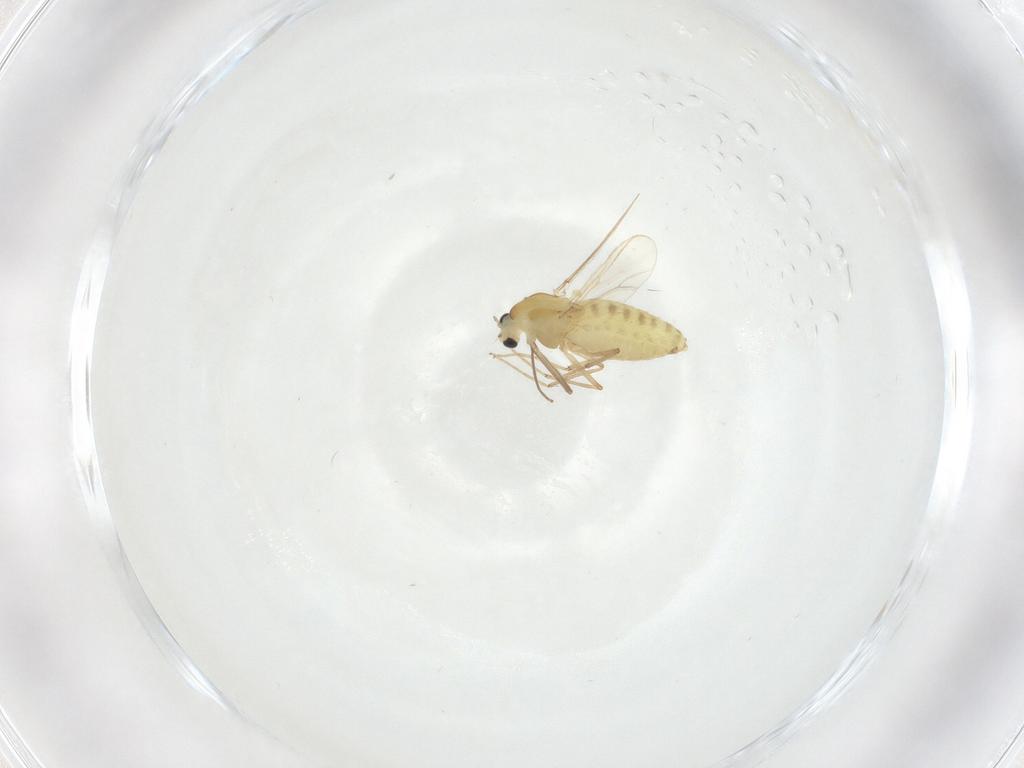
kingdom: Animalia
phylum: Arthropoda
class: Insecta
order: Diptera
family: Chironomidae
